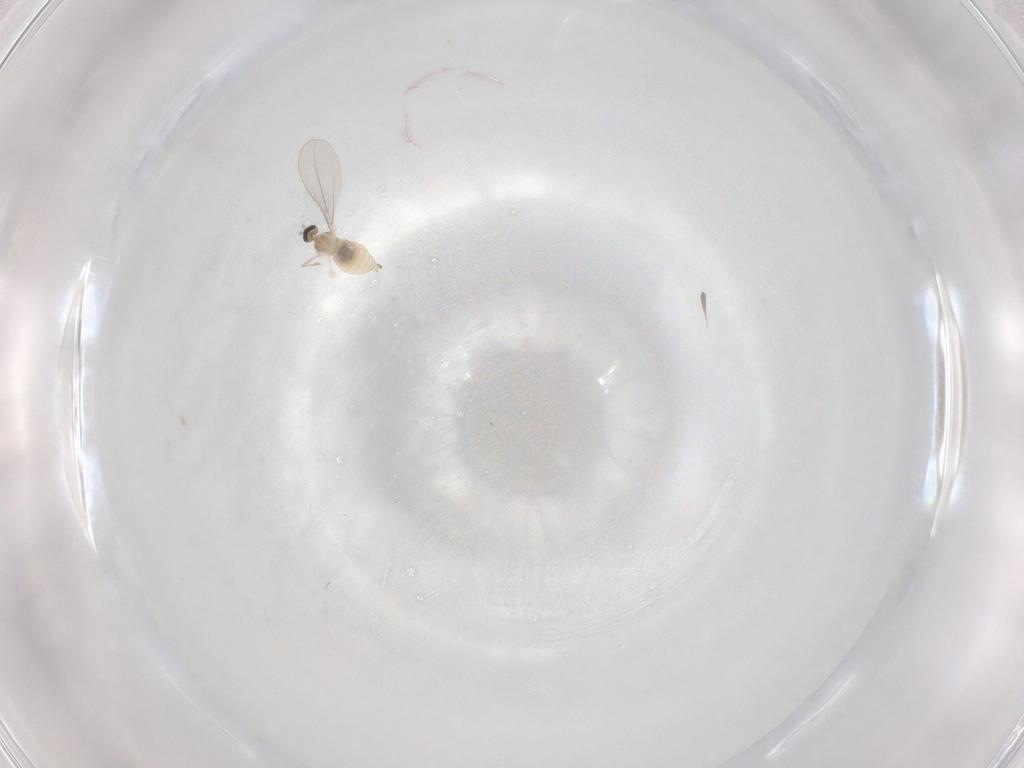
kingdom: Animalia
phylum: Arthropoda
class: Insecta
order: Diptera
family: Cecidomyiidae
